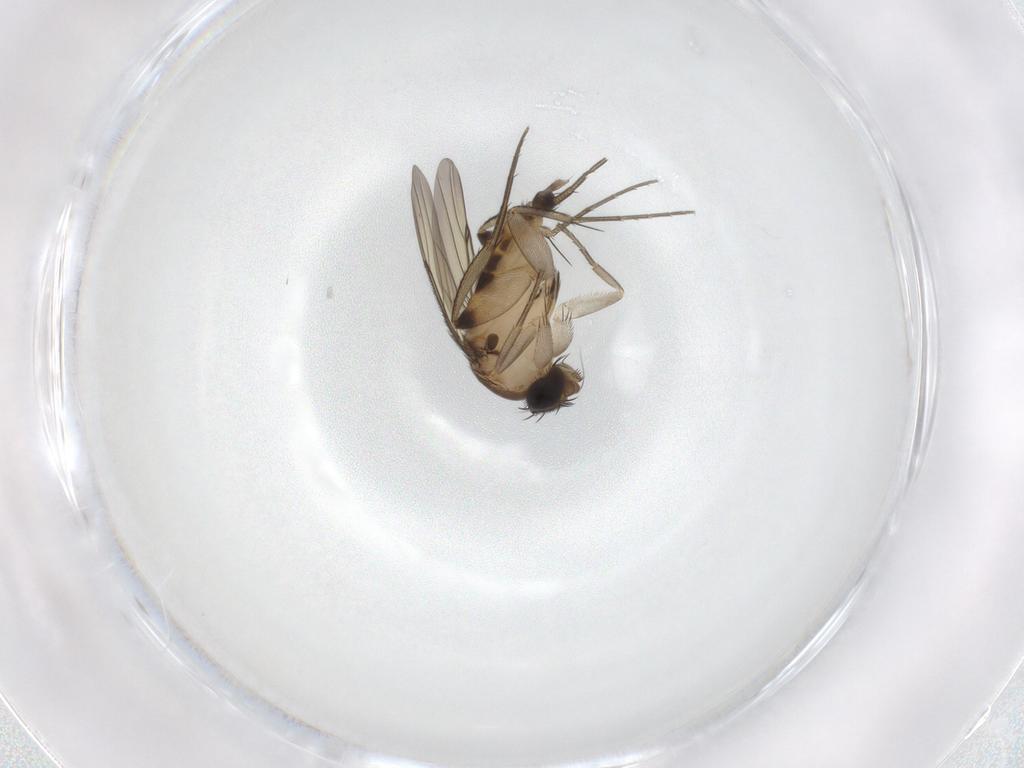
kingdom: Animalia
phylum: Arthropoda
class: Insecta
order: Diptera
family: Phoridae
